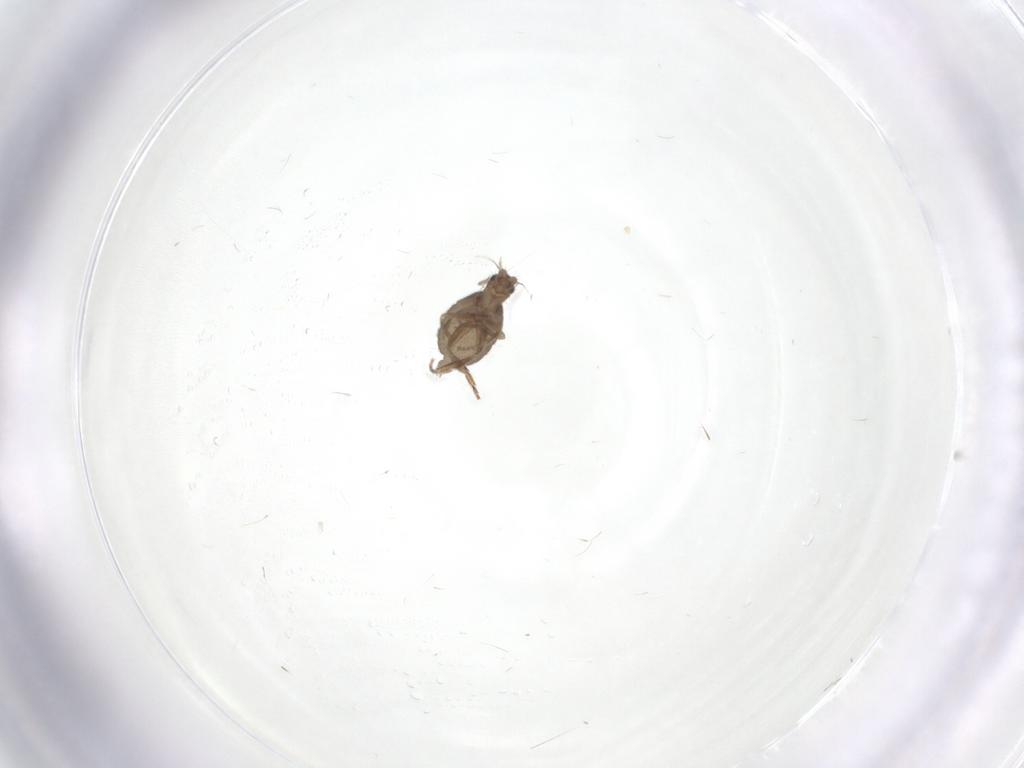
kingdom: Animalia
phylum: Arthropoda
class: Insecta
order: Diptera
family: Phoridae
